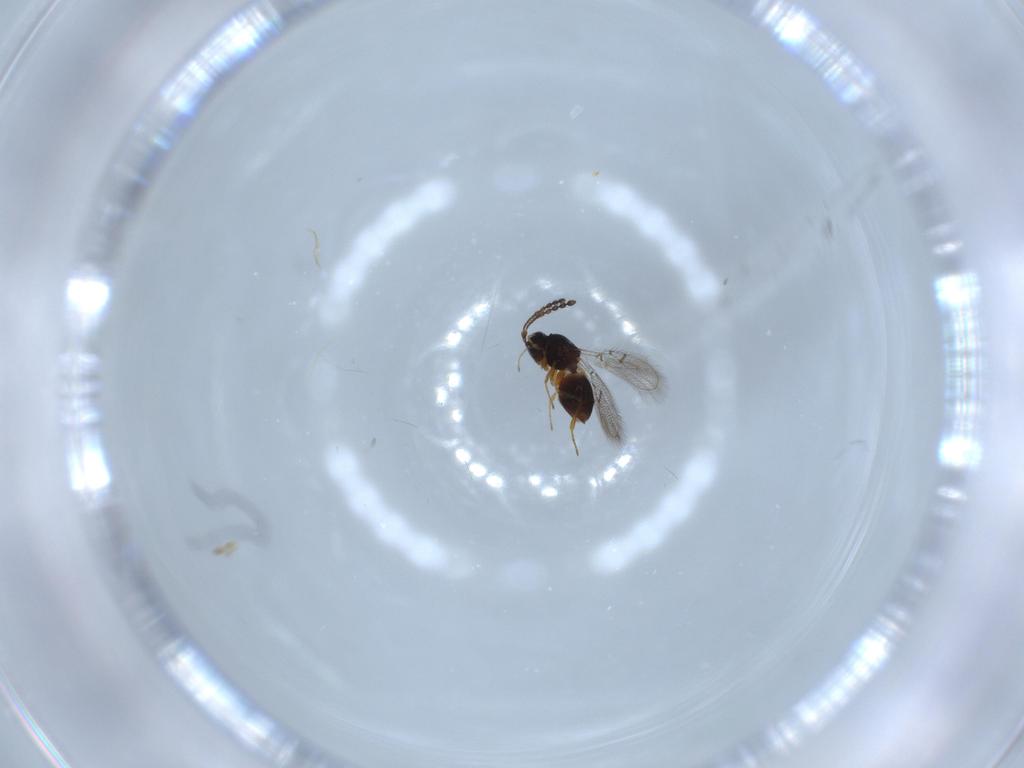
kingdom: Animalia
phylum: Arthropoda
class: Insecta
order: Hymenoptera
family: Figitidae
